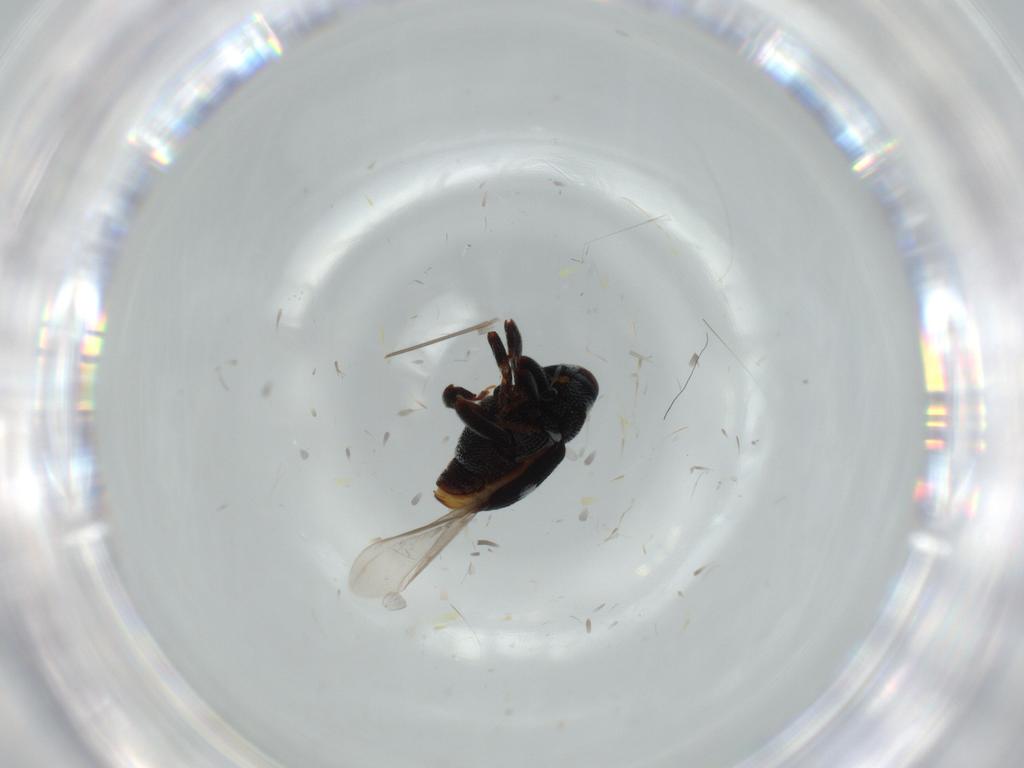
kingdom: Animalia
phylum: Arthropoda
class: Insecta
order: Coleoptera
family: Curculionidae
